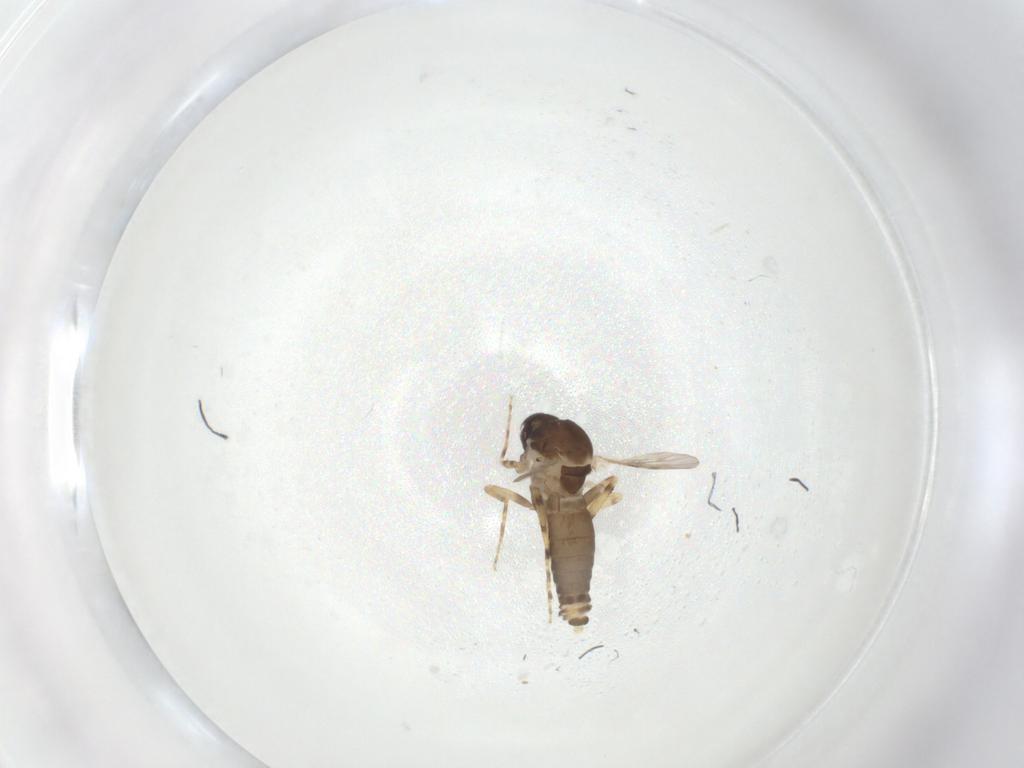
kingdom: Animalia
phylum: Arthropoda
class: Insecta
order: Diptera
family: Ceratopogonidae
